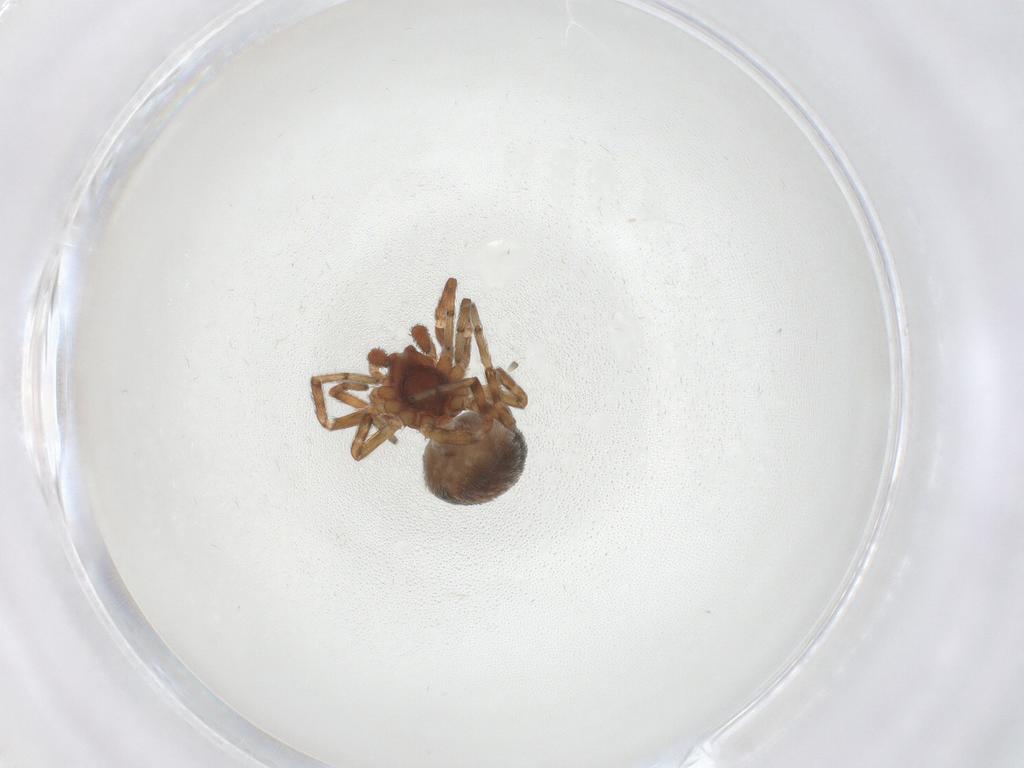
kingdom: Animalia
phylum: Arthropoda
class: Arachnida
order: Araneae
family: Dictynidae
